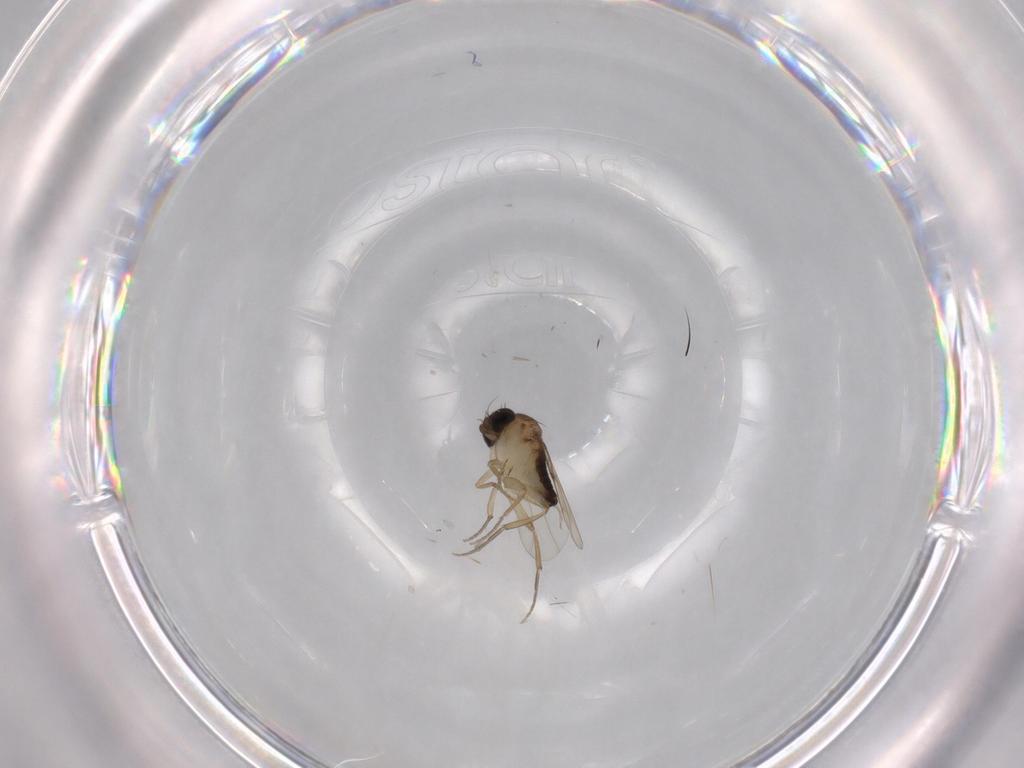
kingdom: Animalia
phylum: Arthropoda
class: Insecta
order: Diptera
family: Phoridae
